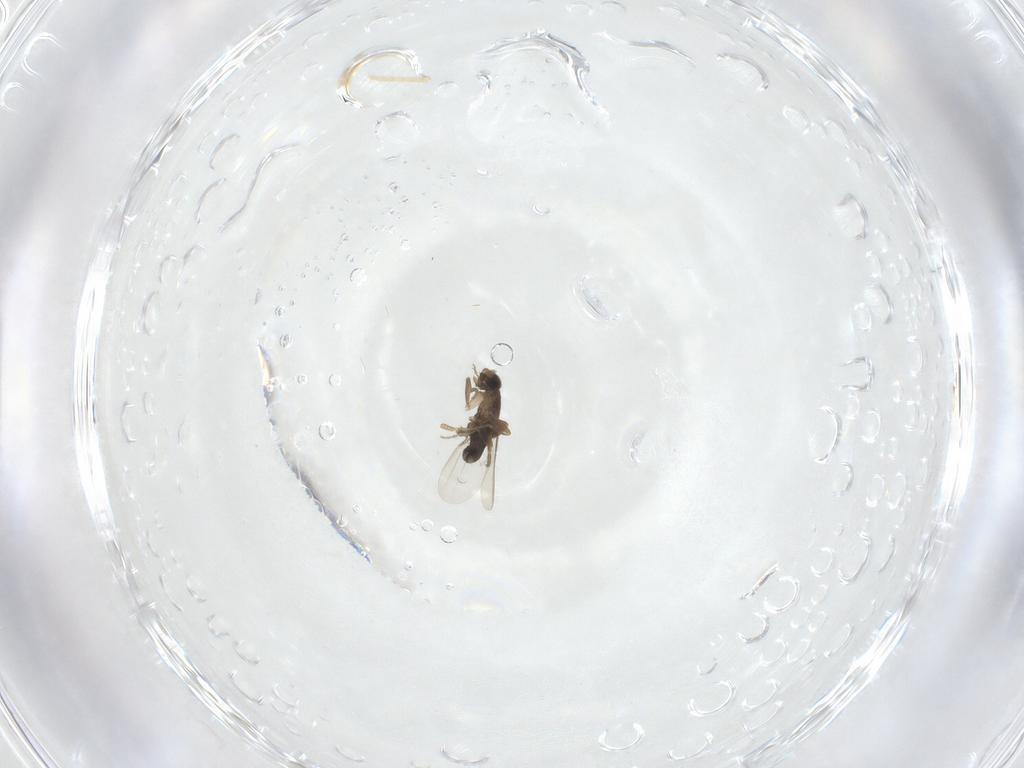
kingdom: Animalia
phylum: Arthropoda
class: Insecta
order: Diptera
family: Phoridae
